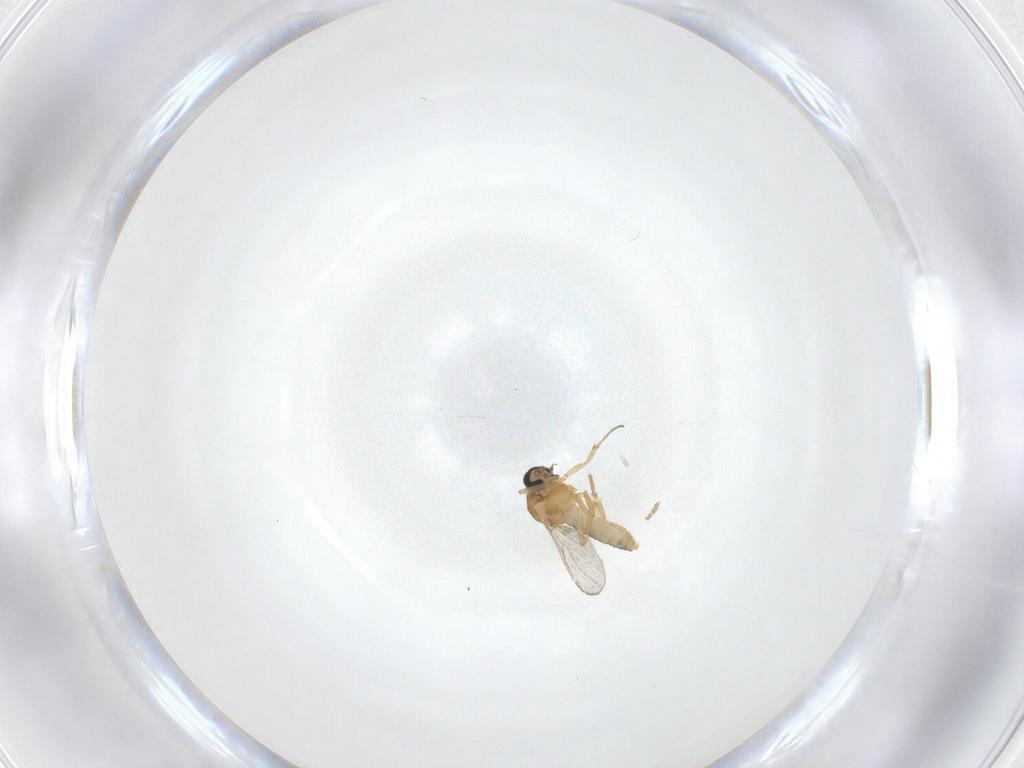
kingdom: Animalia
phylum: Arthropoda
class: Insecta
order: Diptera
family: Ceratopogonidae
